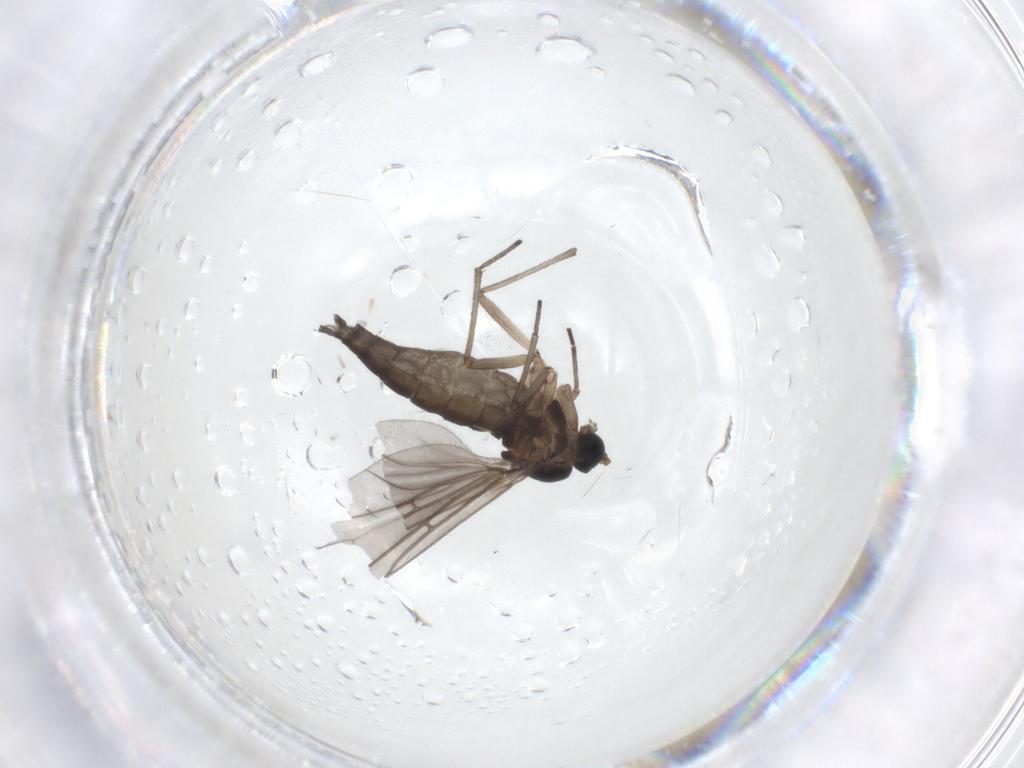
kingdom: Animalia
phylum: Arthropoda
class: Insecta
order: Diptera
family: Sciaridae
